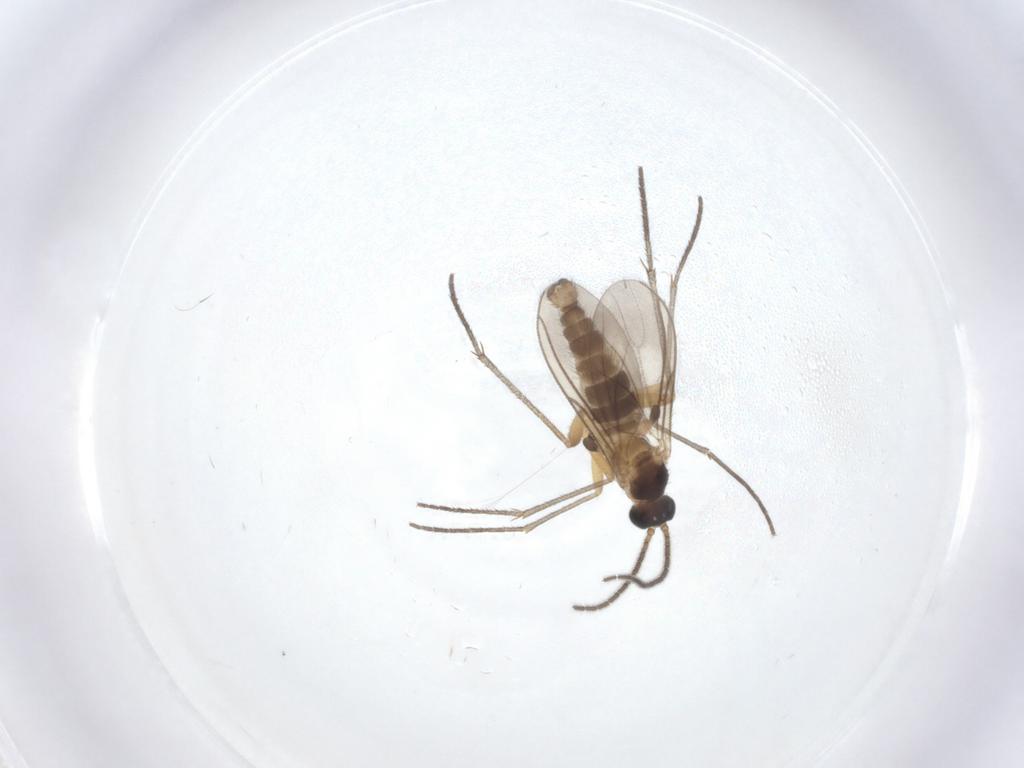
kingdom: Animalia
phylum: Arthropoda
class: Insecta
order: Diptera
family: Sciaridae
